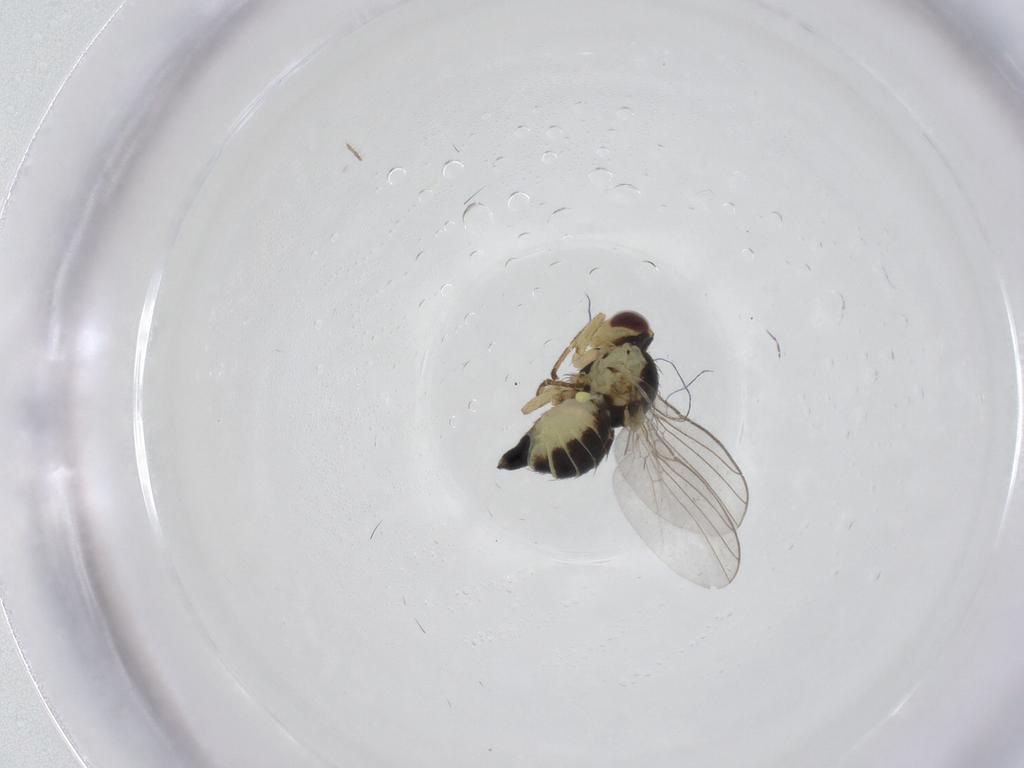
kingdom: Animalia
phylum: Arthropoda
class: Insecta
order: Diptera
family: Agromyzidae
